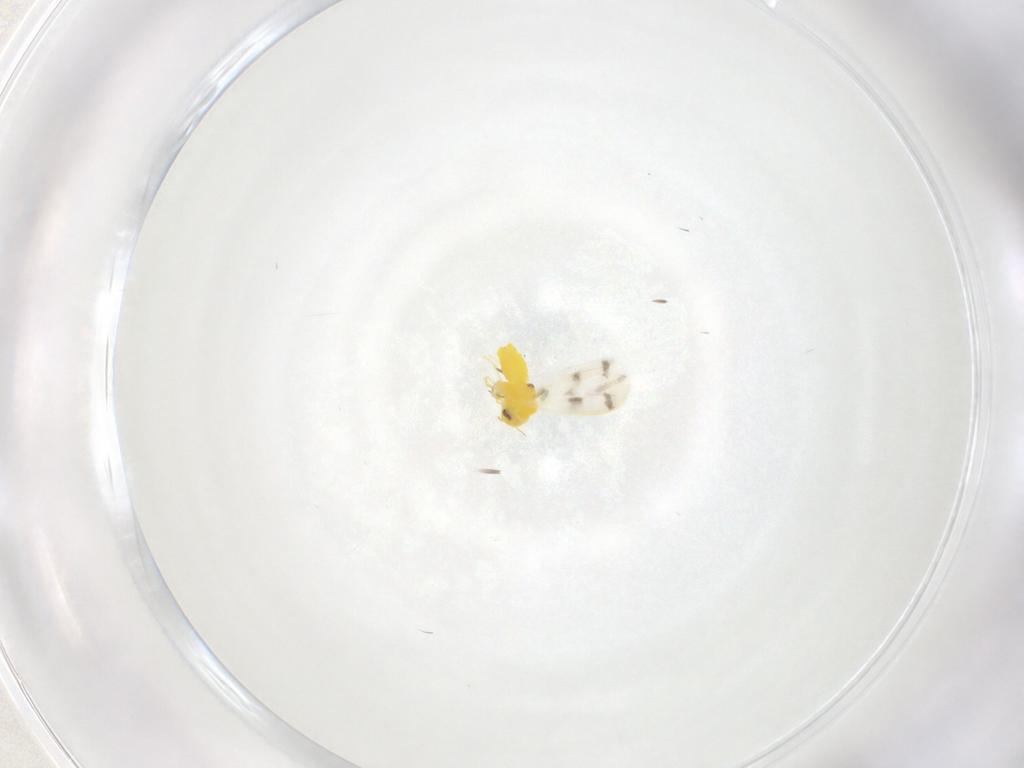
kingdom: Animalia
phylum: Arthropoda
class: Insecta
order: Hemiptera
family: Aleyrodidae
